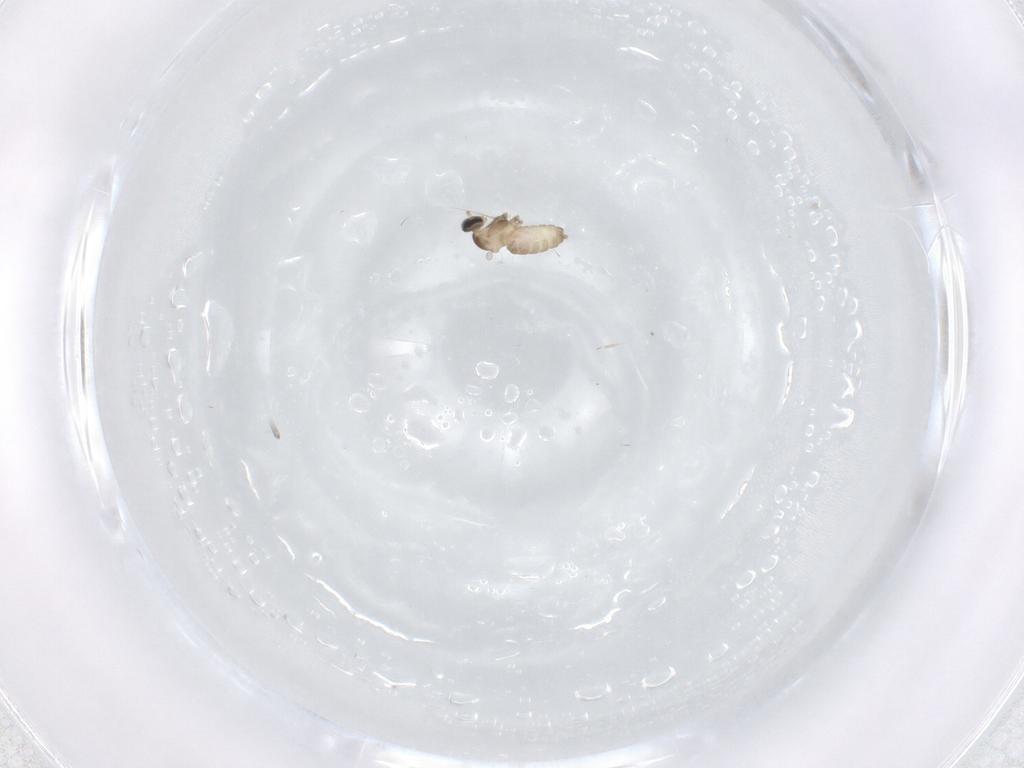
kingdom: Animalia
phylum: Arthropoda
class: Insecta
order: Diptera
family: Cecidomyiidae
